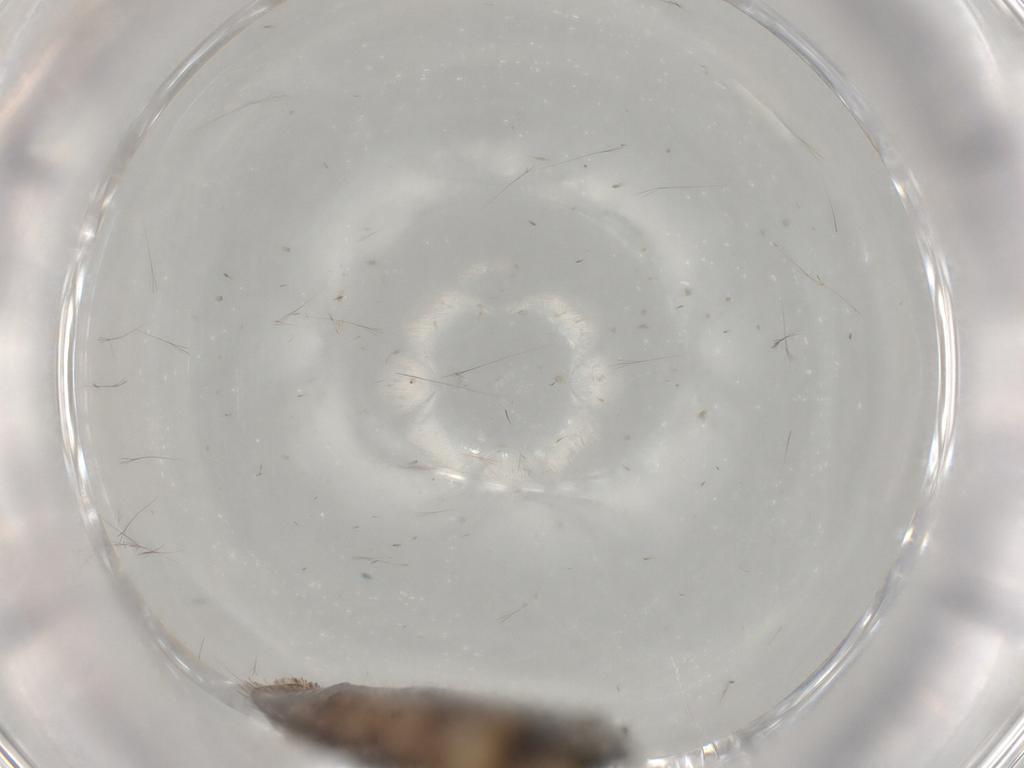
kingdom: Animalia
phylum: Arthropoda
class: Insecta
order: Lepidoptera
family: Cosmopterigidae
